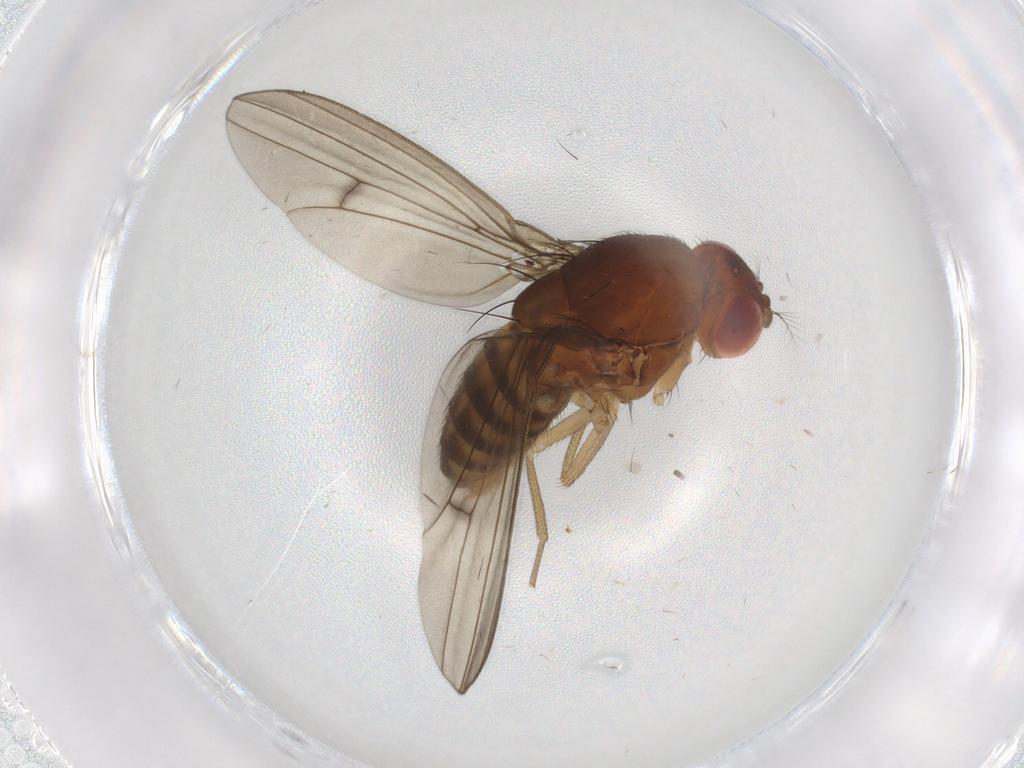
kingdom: Animalia
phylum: Arthropoda
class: Insecta
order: Diptera
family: Drosophilidae
